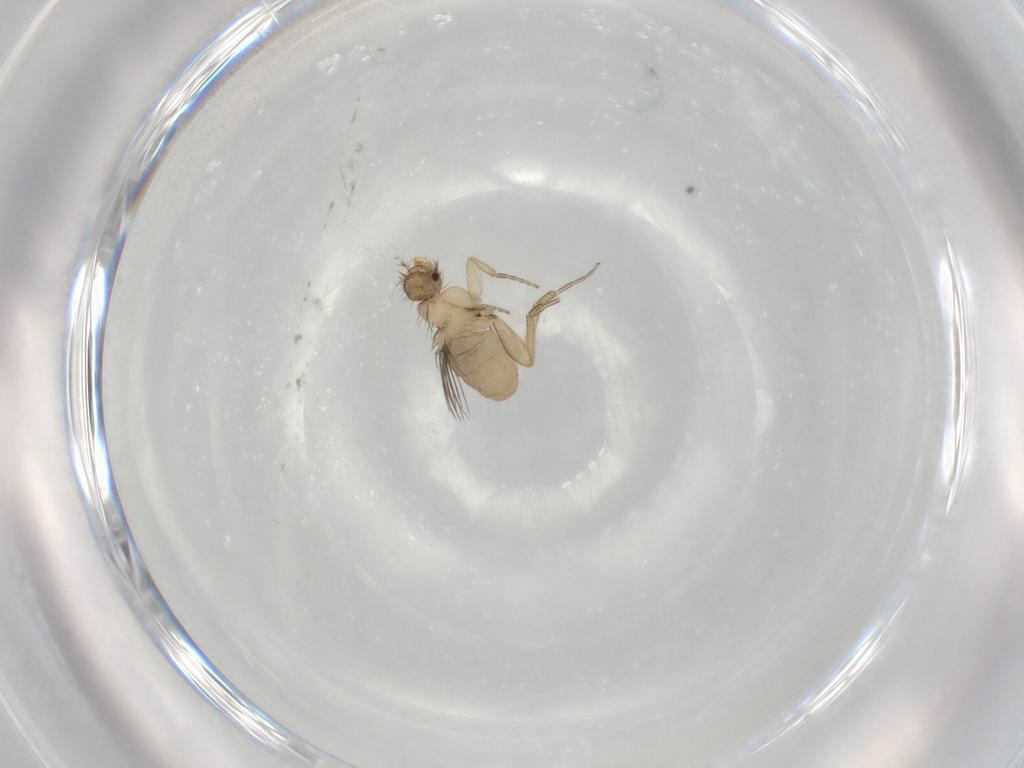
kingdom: Animalia
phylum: Arthropoda
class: Insecta
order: Diptera
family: Phoridae
